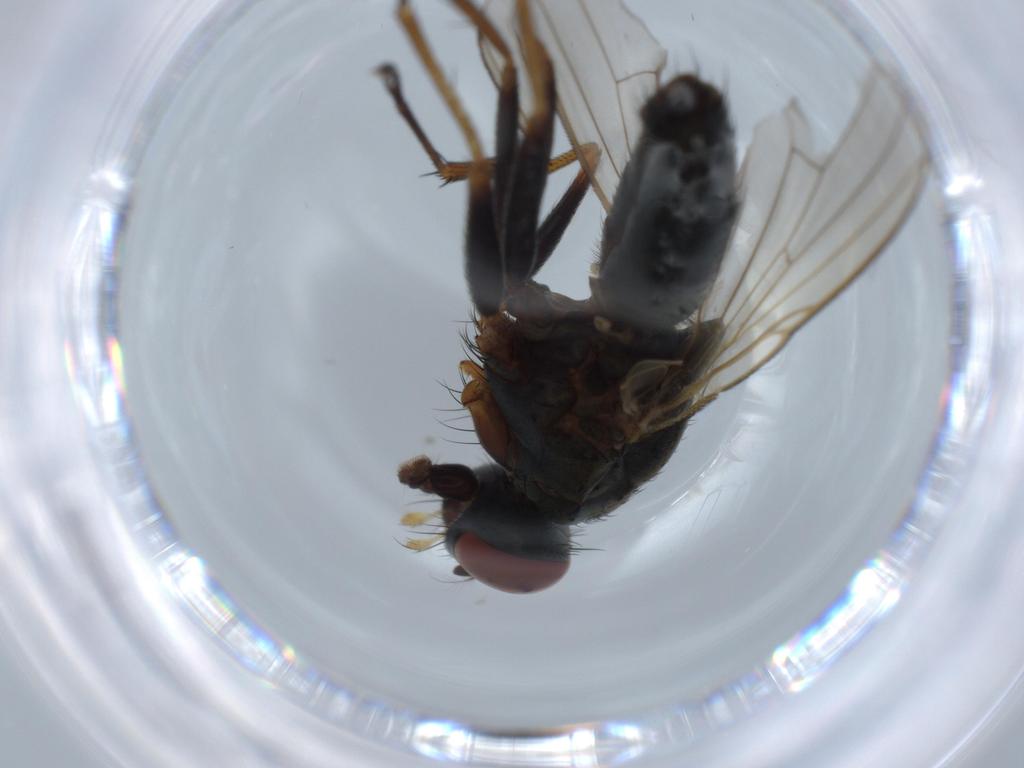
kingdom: Animalia
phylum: Arthropoda
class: Insecta
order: Diptera
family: Muscidae
